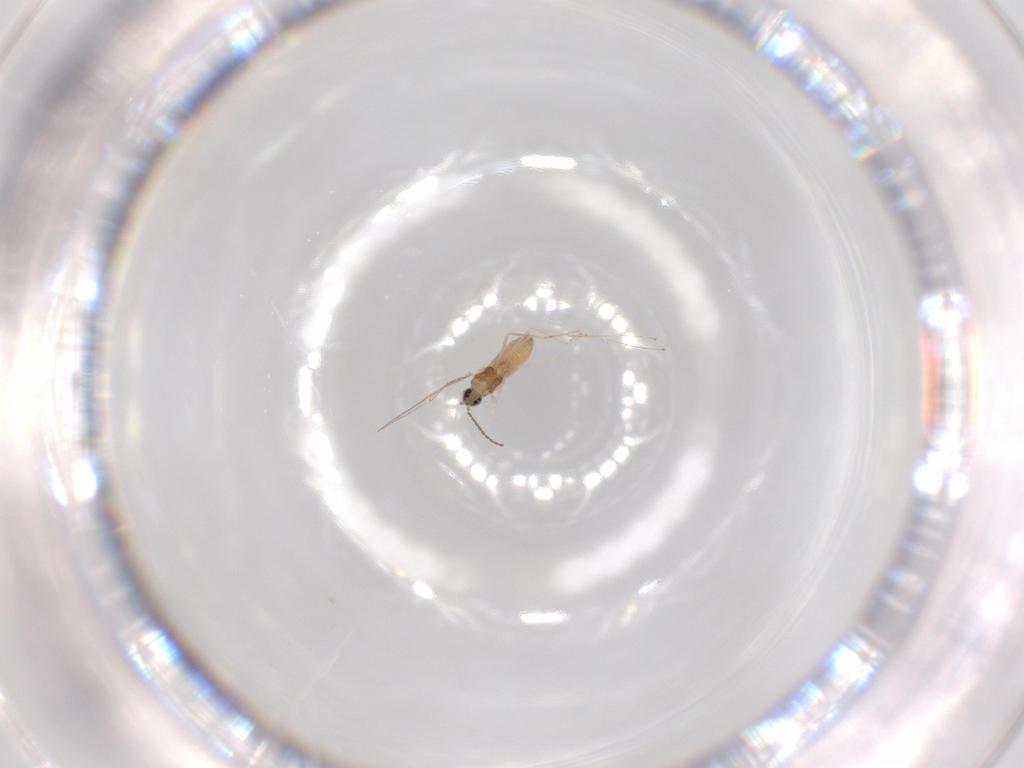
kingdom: Animalia
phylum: Arthropoda
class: Insecta
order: Diptera
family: Cecidomyiidae
